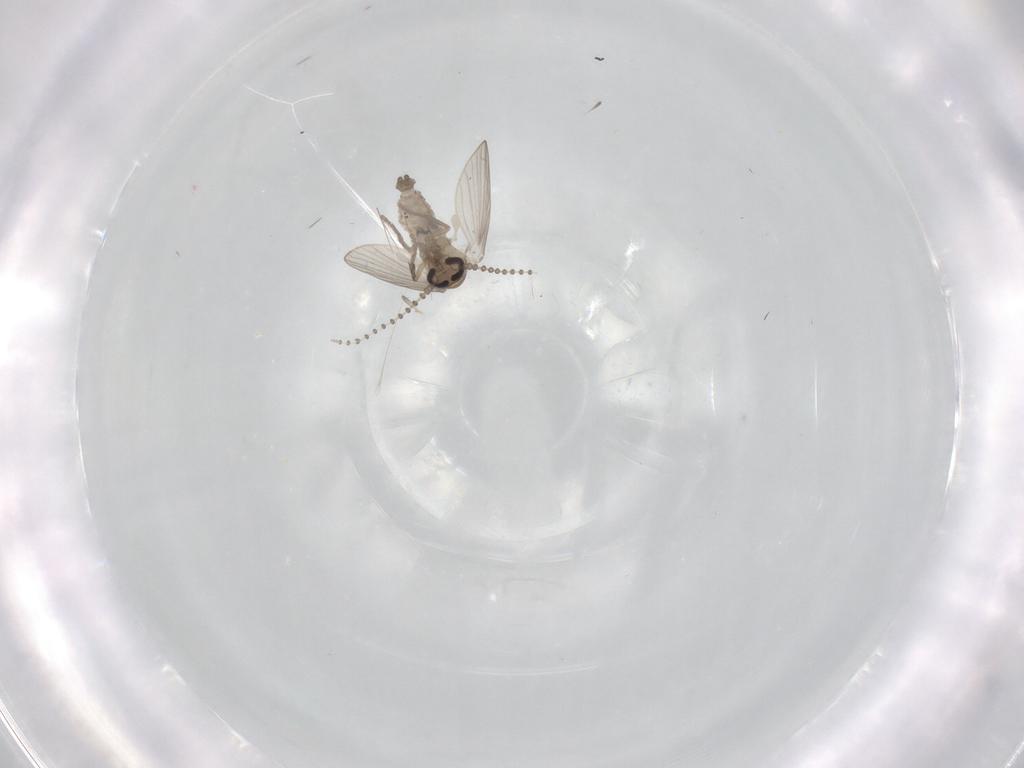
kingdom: Animalia
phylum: Arthropoda
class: Insecta
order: Diptera
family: Psychodidae
